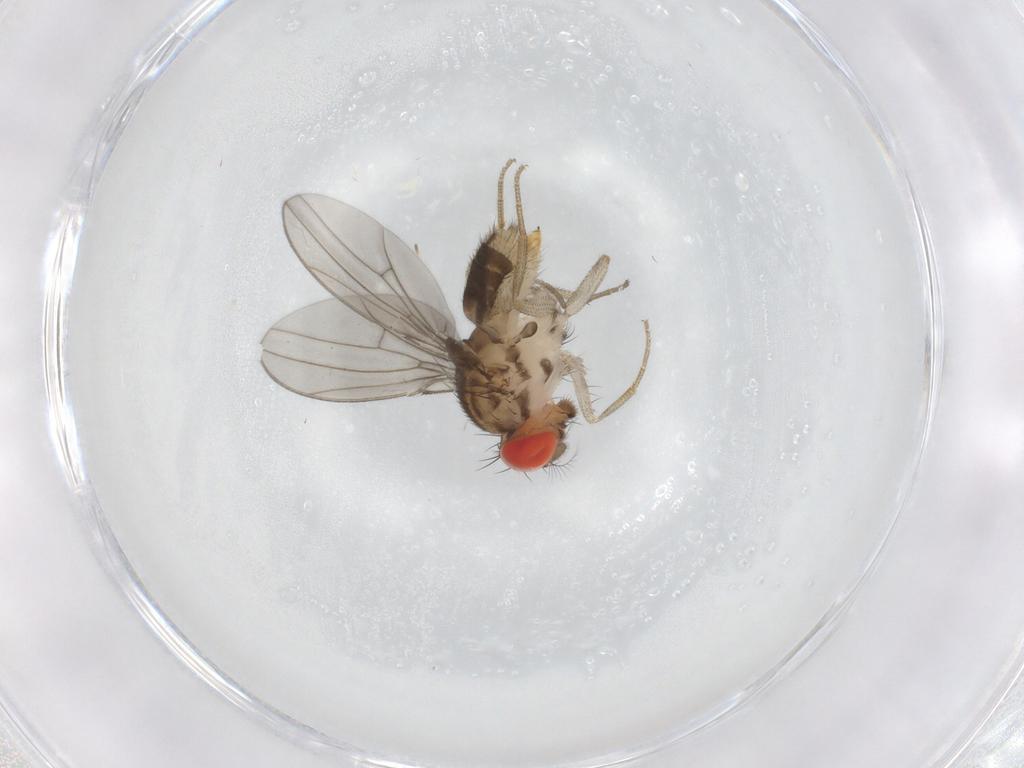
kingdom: Animalia
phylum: Arthropoda
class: Insecta
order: Diptera
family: Drosophilidae
